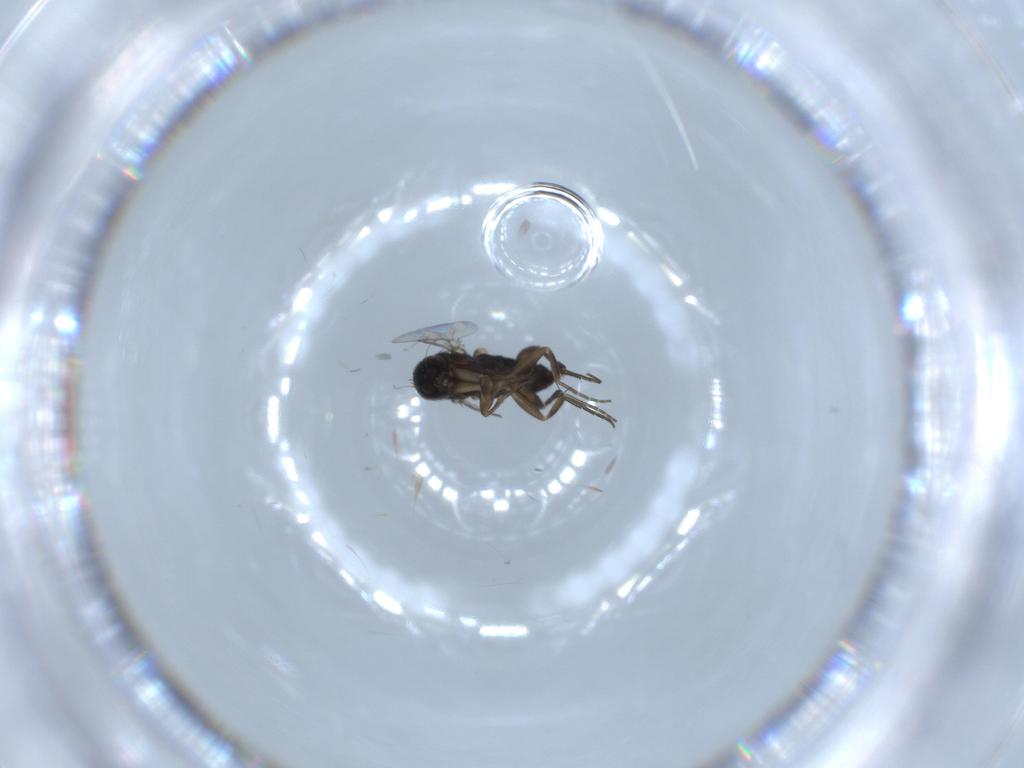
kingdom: Animalia
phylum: Arthropoda
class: Insecta
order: Diptera
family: Phoridae
